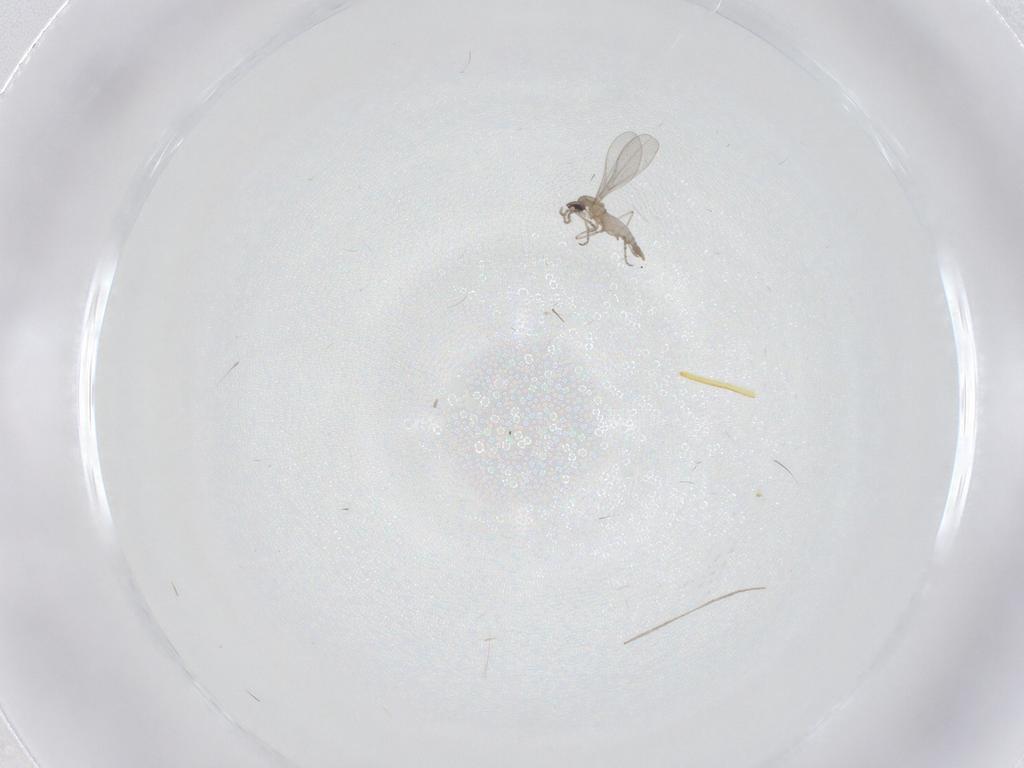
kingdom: Animalia
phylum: Arthropoda
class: Insecta
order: Diptera
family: Cecidomyiidae
